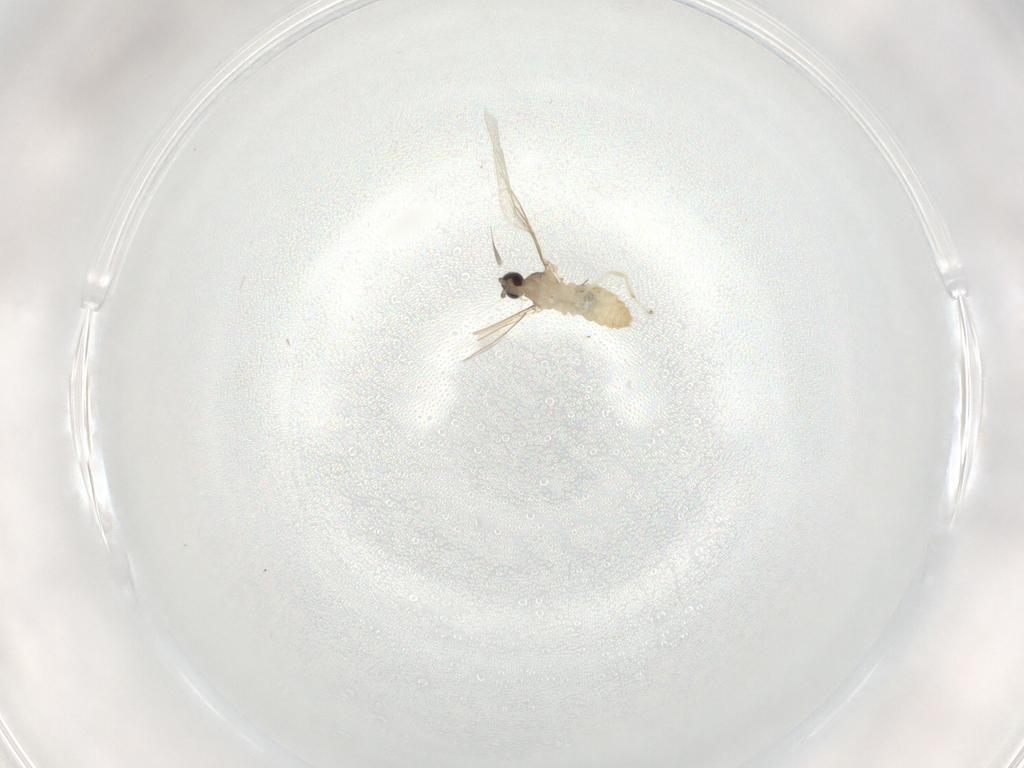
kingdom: Animalia
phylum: Arthropoda
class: Insecta
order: Diptera
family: Cecidomyiidae
